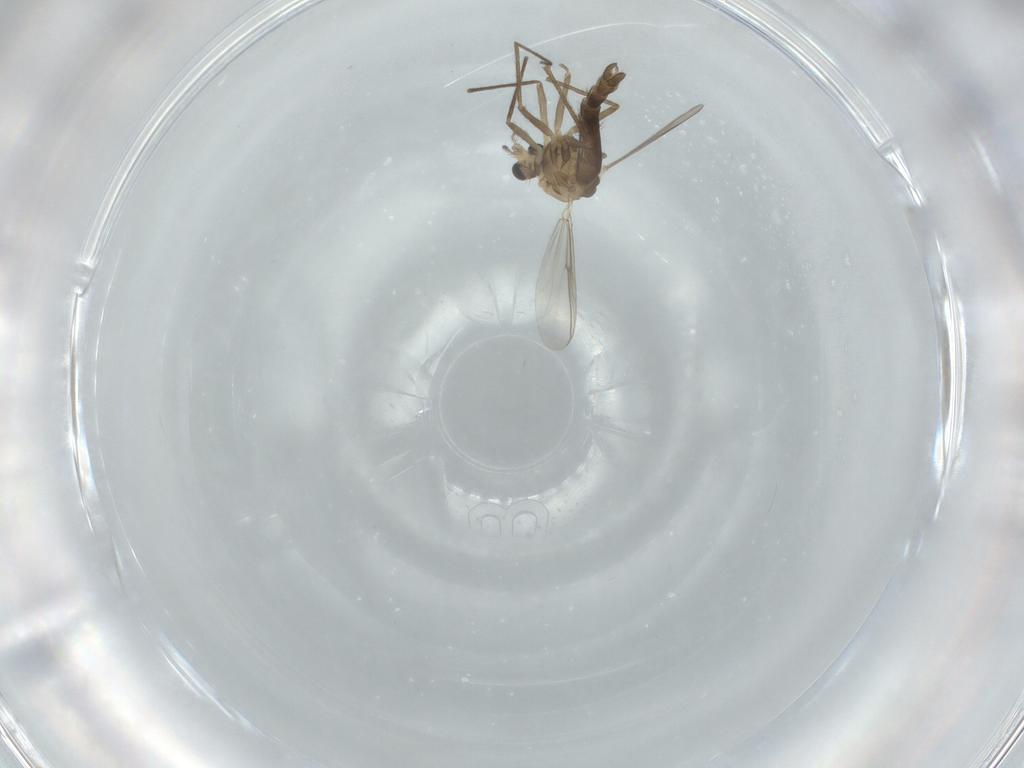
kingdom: Animalia
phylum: Arthropoda
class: Insecta
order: Diptera
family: Chironomidae
